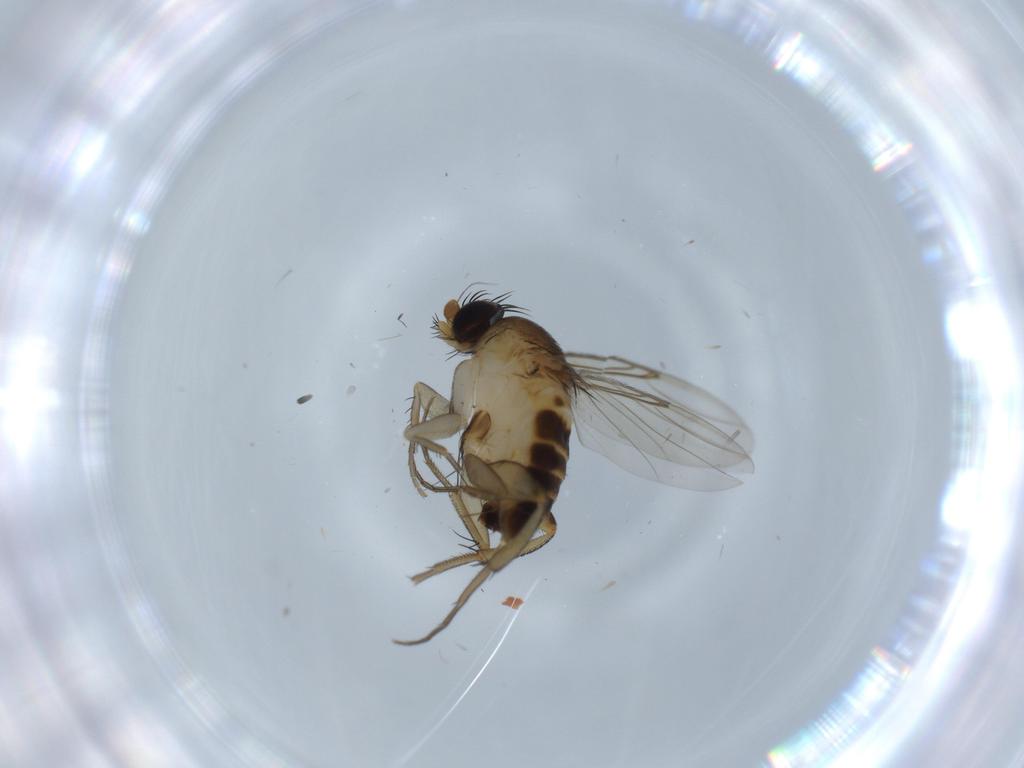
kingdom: Animalia
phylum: Arthropoda
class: Insecta
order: Diptera
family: Phoridae
